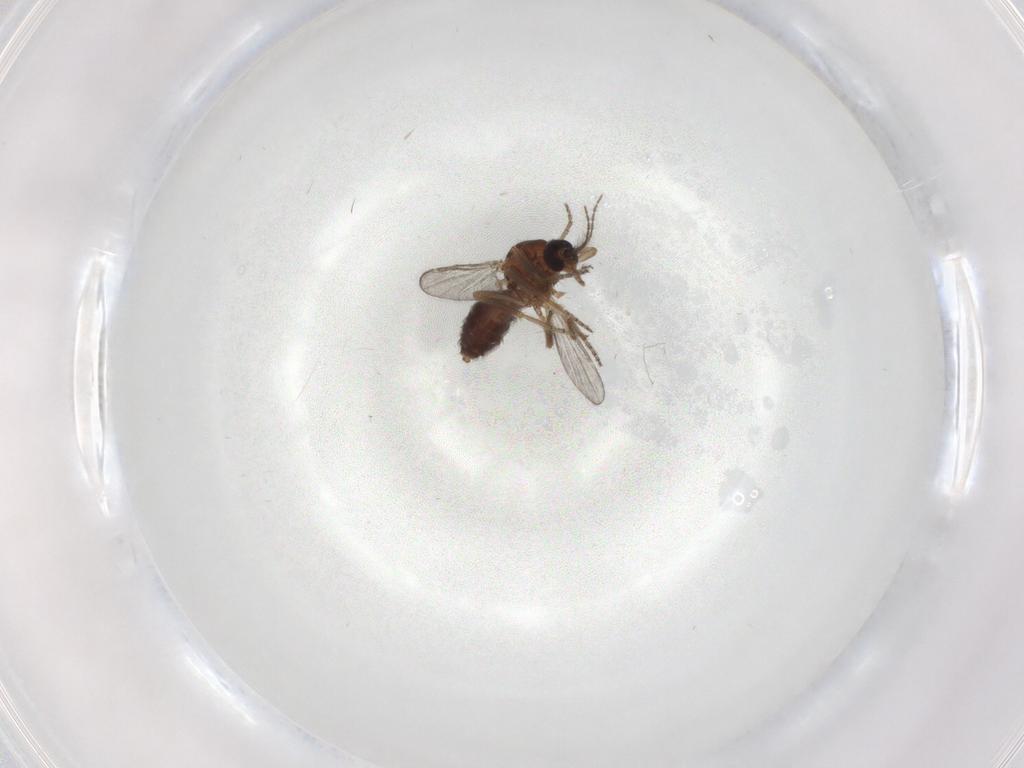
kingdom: Animalia
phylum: Arthropoda
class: Insecta
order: Diptera
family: Ceratopogonidae
